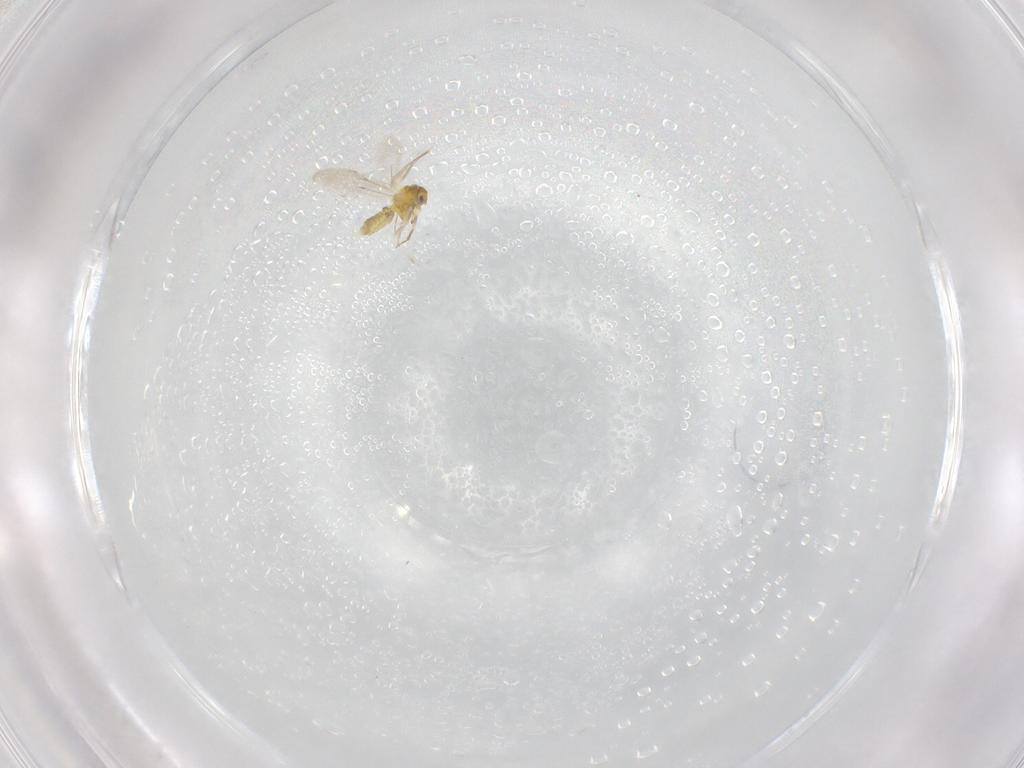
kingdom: Animalia
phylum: Arthropoda
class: Insecta
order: Hemiptera
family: Aleyrodidae
